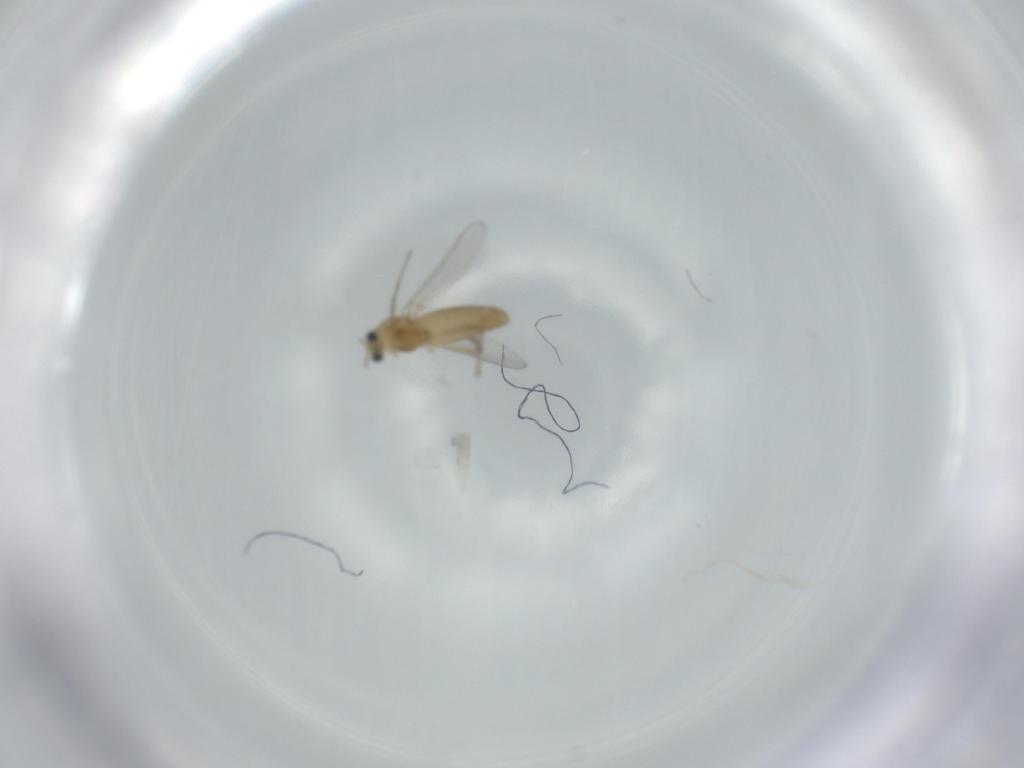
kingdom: Animalia
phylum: Arthropoda
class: Insecta
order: Diptera
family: Chironomidae
